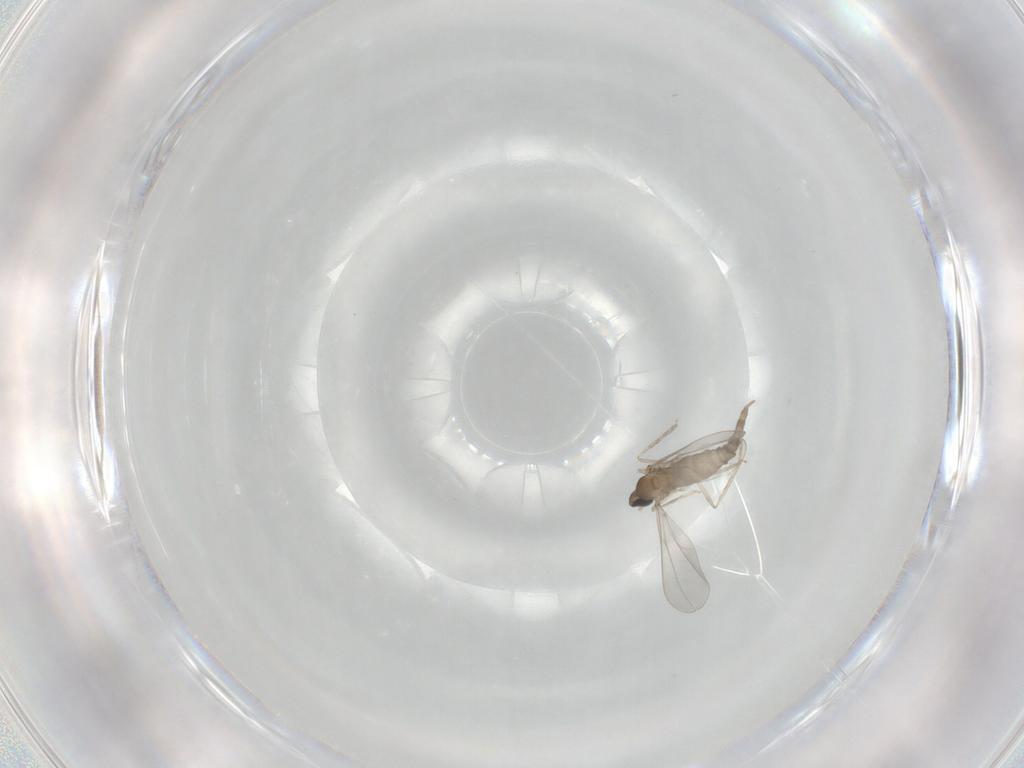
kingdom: Animalia
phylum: Arthropoda
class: Insecta
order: Diptera
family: Cecidomyiidae
